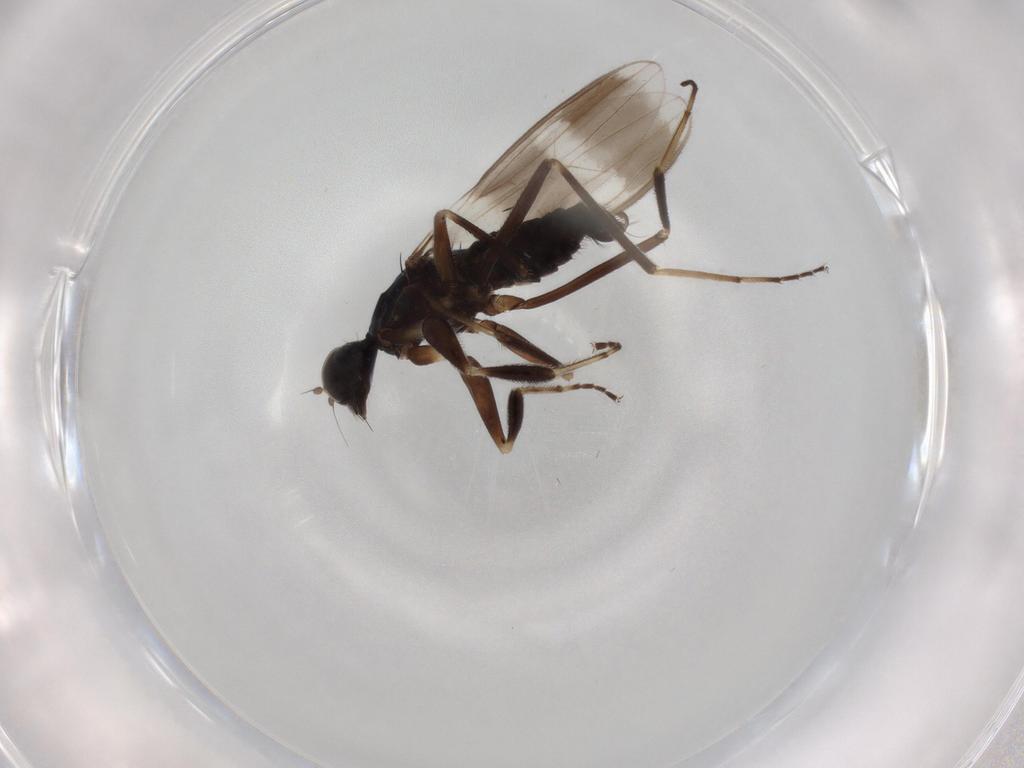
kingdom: Animalia
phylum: Arthropoda
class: Insecta
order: Diptera
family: Hybotidae
